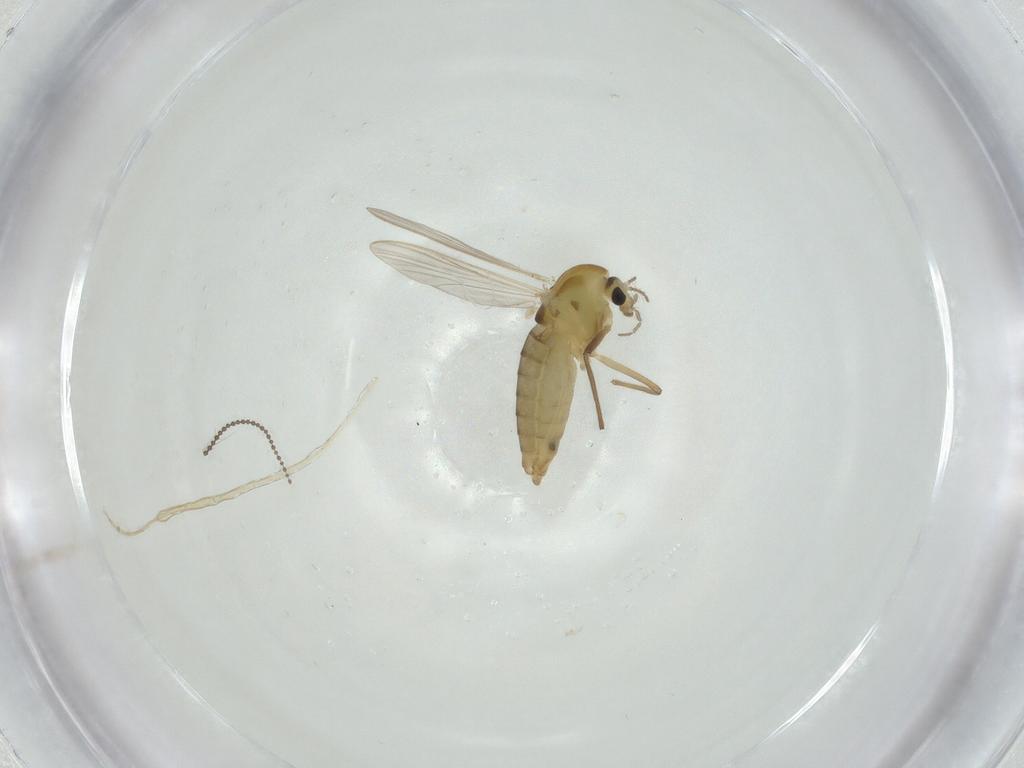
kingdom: Animalia
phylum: Arthropoda
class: Insecta
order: Diptera
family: Chironomidae
